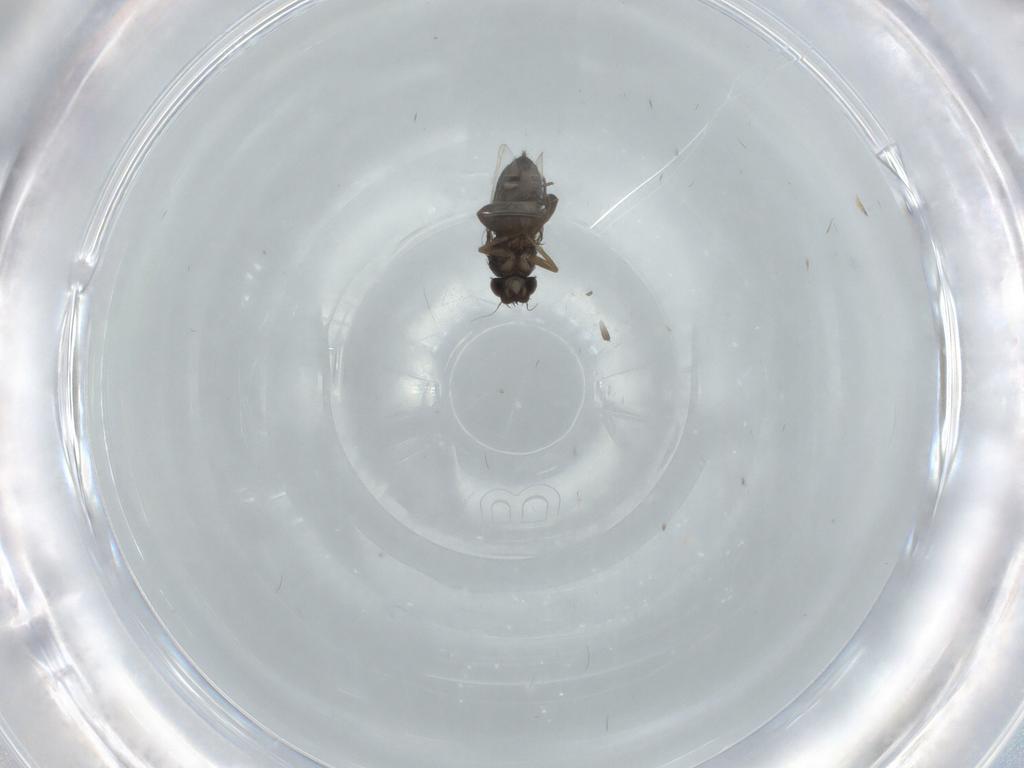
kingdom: Animalia
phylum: Arthropoda
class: Insecta
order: Diptera
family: Phoridae
